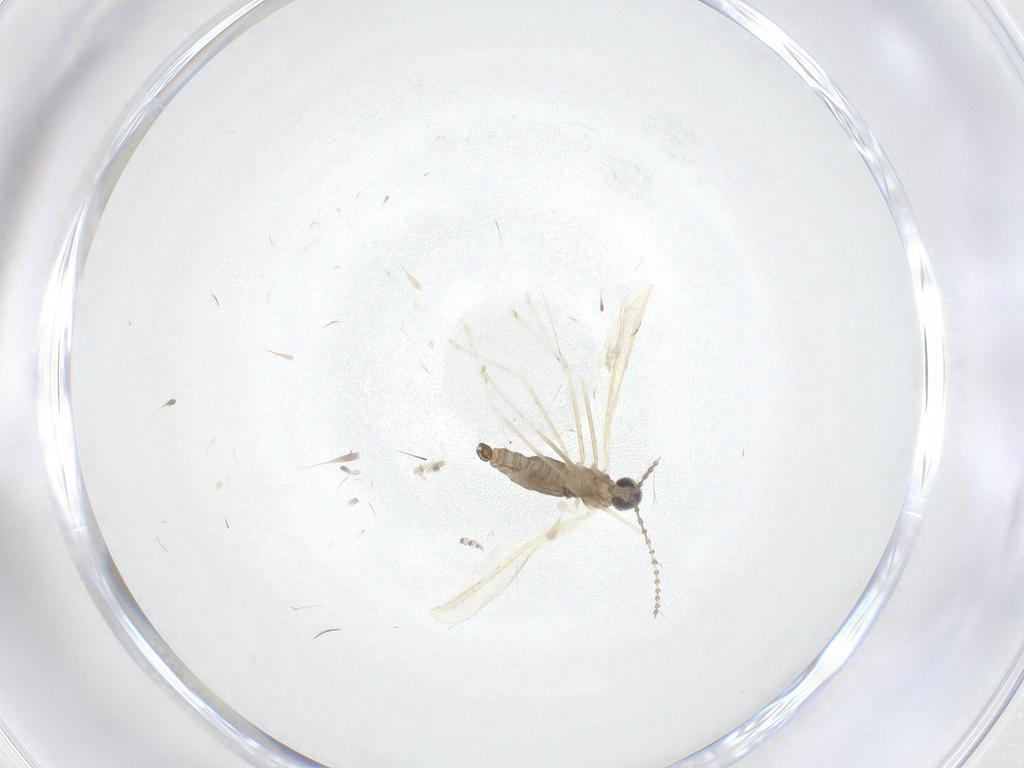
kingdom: Animalia
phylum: Arthropoda
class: Insecta
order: Diptera
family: Cecidomyiidae
